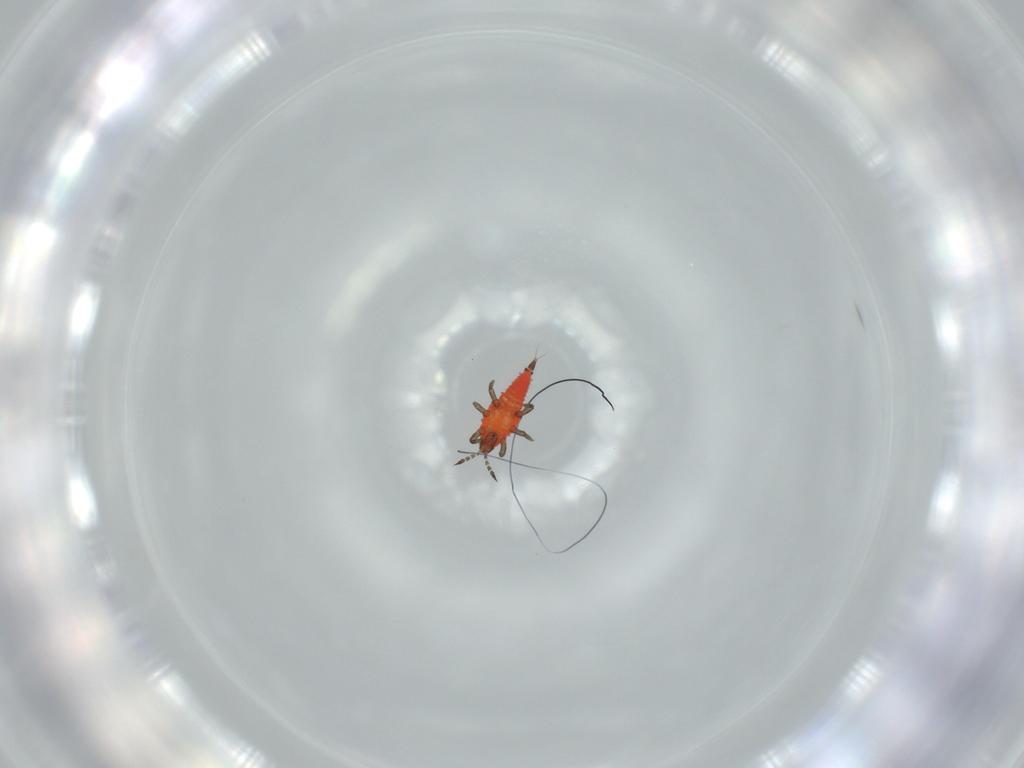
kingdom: Animalia
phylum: Arthropoda
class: Insecta
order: Thysanoptera
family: Phlaeothripidae
